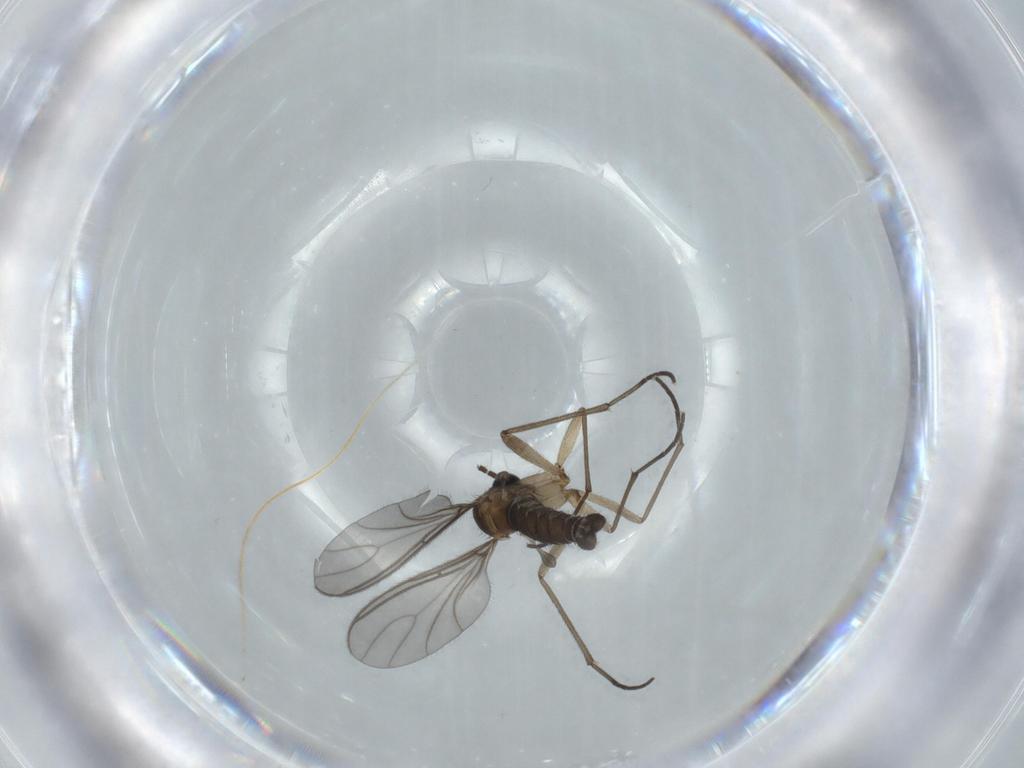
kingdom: Animalia
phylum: Arthropoda
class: Insecta
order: Diptera
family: Sciaridae
